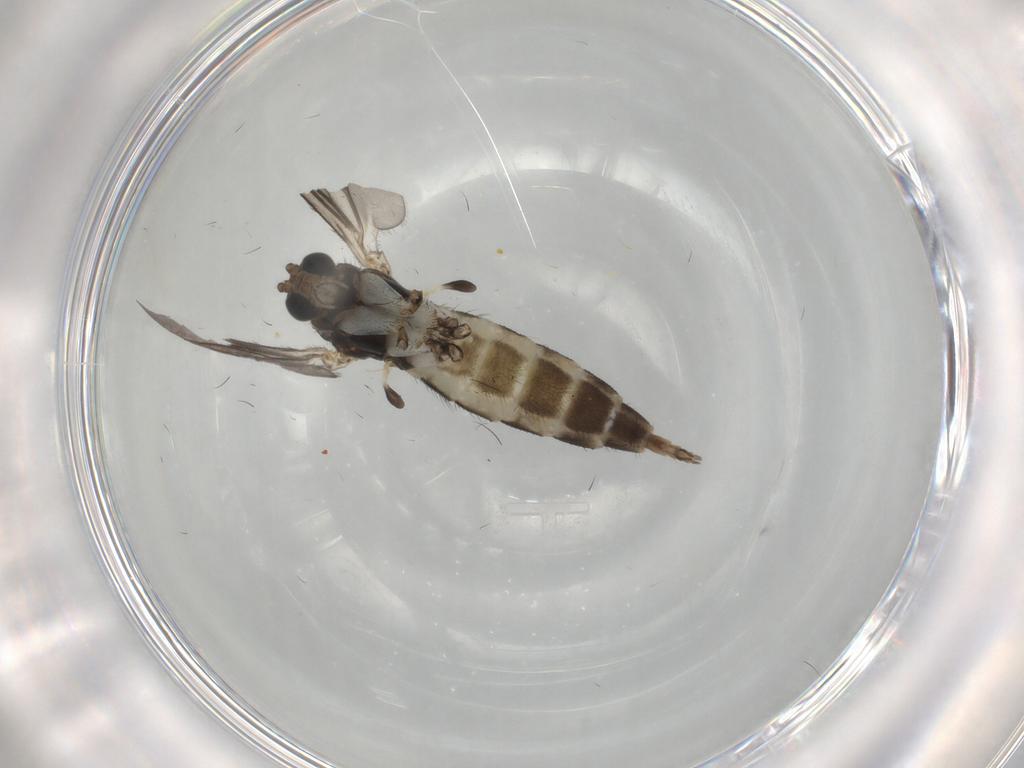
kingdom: Animalia
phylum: Arthropoda
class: Insecta
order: Diptera
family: Sciaridae
